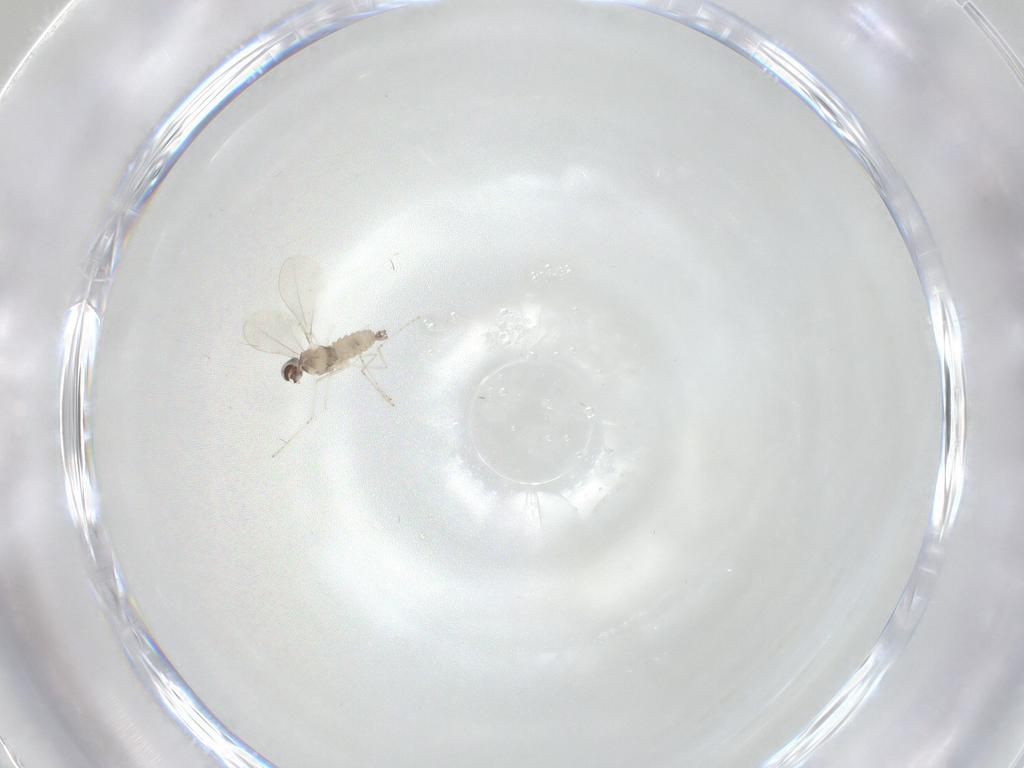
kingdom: Animalia
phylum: Arthropoda
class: Insecta
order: Diptera
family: Cecidomyiidae
